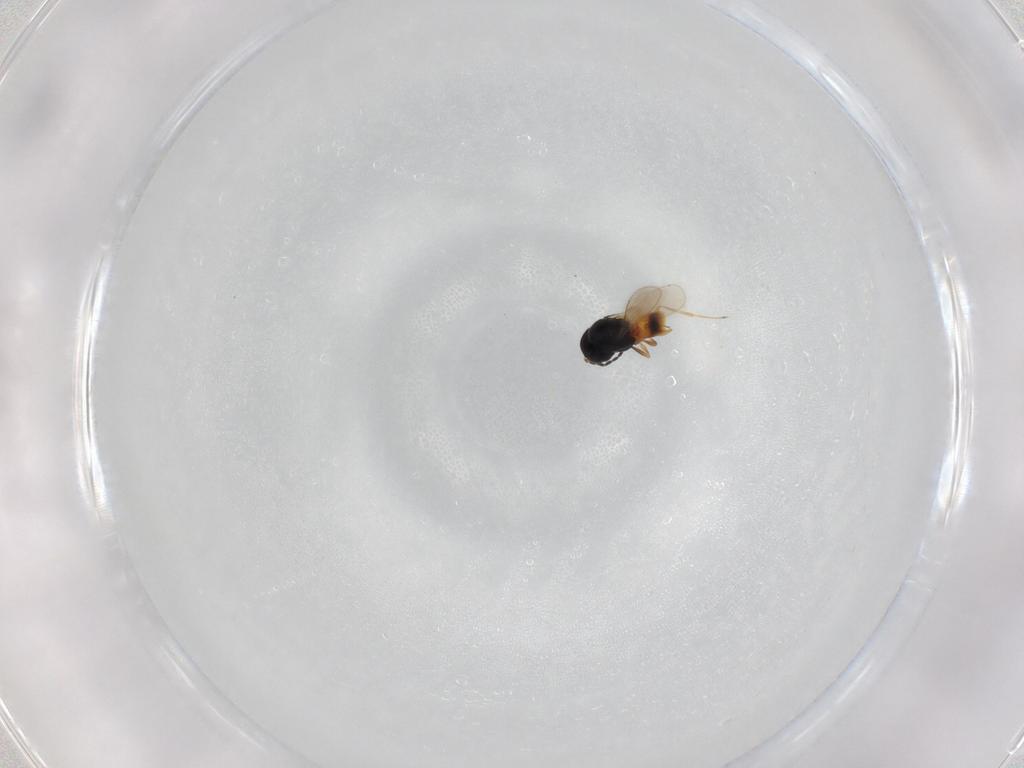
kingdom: Animalia
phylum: Arthropoda
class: Insecta
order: Hymenoptera
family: Scelionidae
